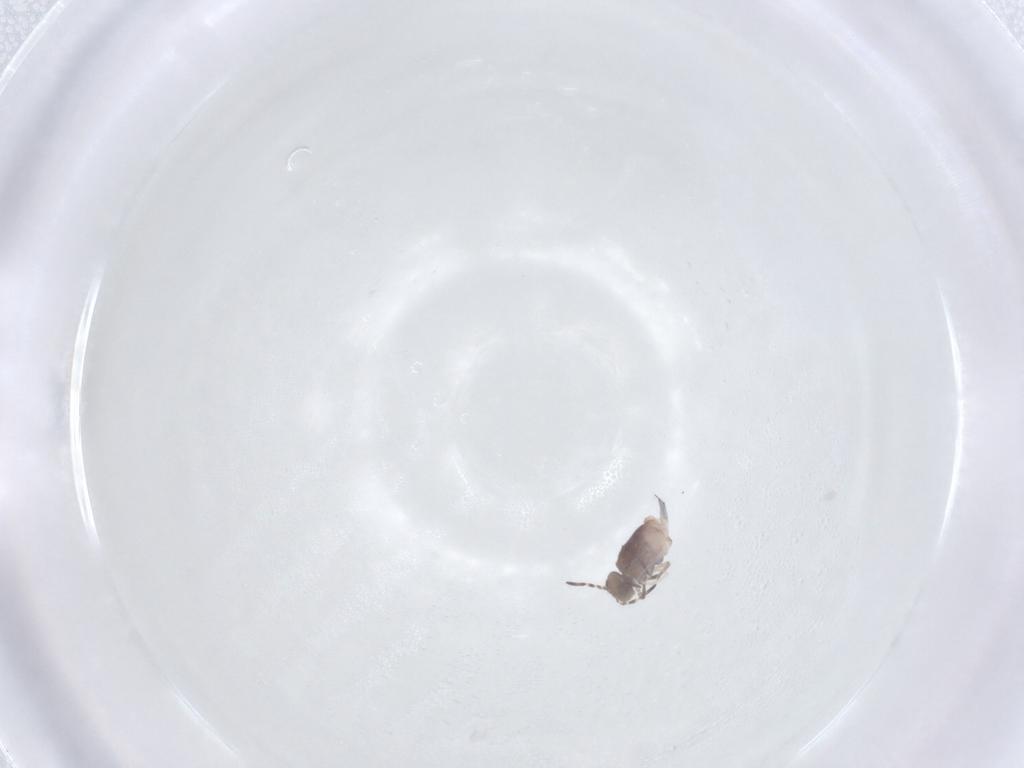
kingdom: Animalia
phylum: Arthropoda
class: Collembola
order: Symphypleona
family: Sminthuridae
